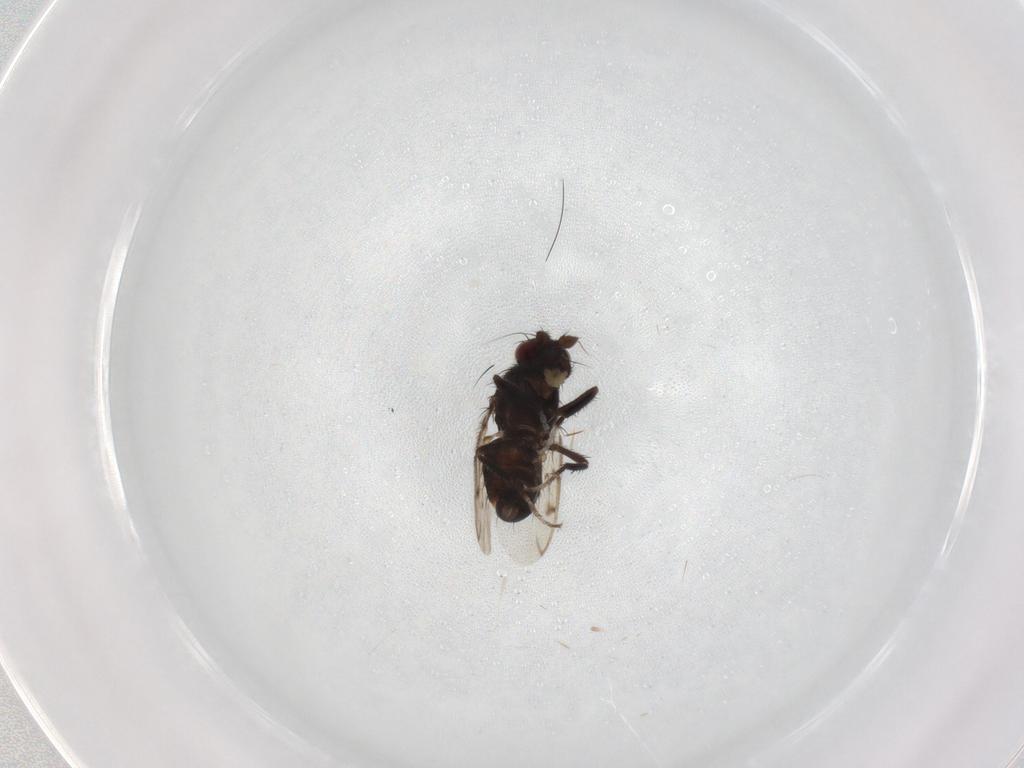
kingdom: Animalia
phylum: Arthropoda
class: Insecta
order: Diptera
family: Sphaeroceridae
